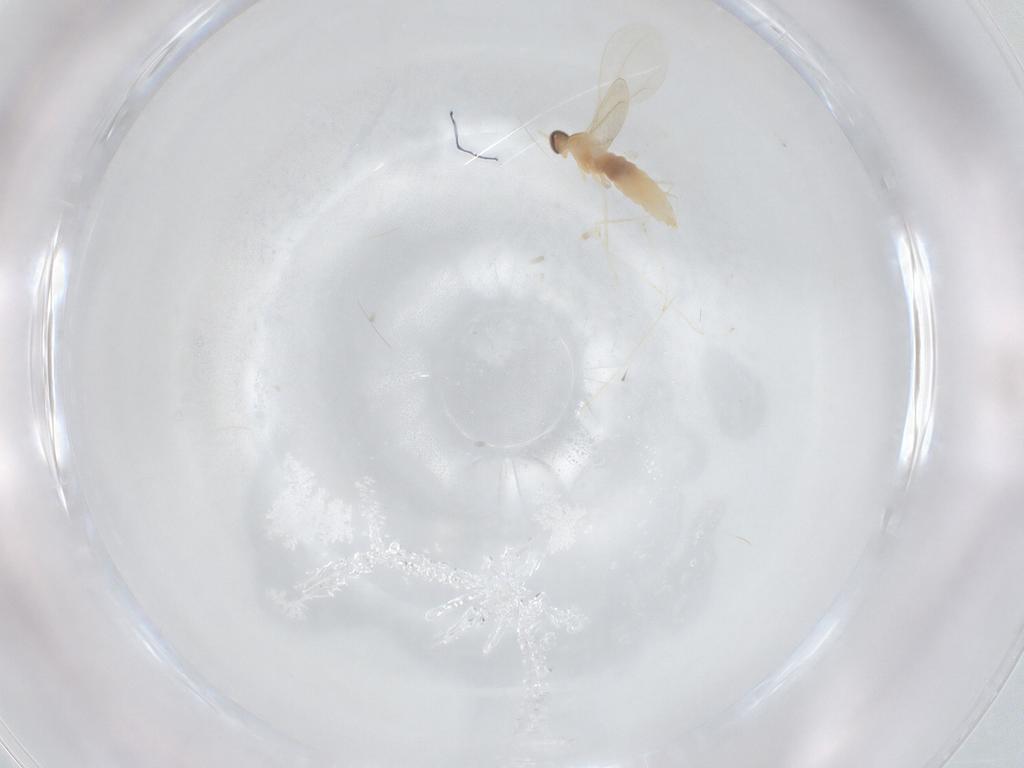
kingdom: Animalia
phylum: Arthropoda
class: Insecta
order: Diptera
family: Cecidomyiidae
